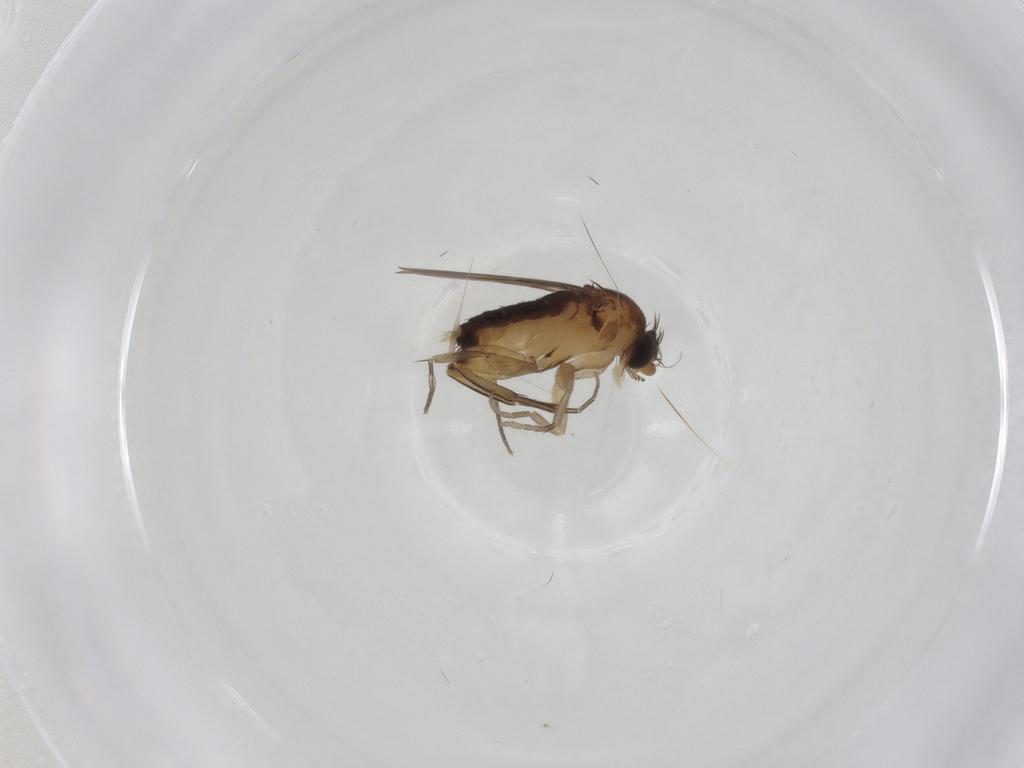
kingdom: Animalia
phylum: Arthropoda
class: Insecta
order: Diptera
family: Phoridae
